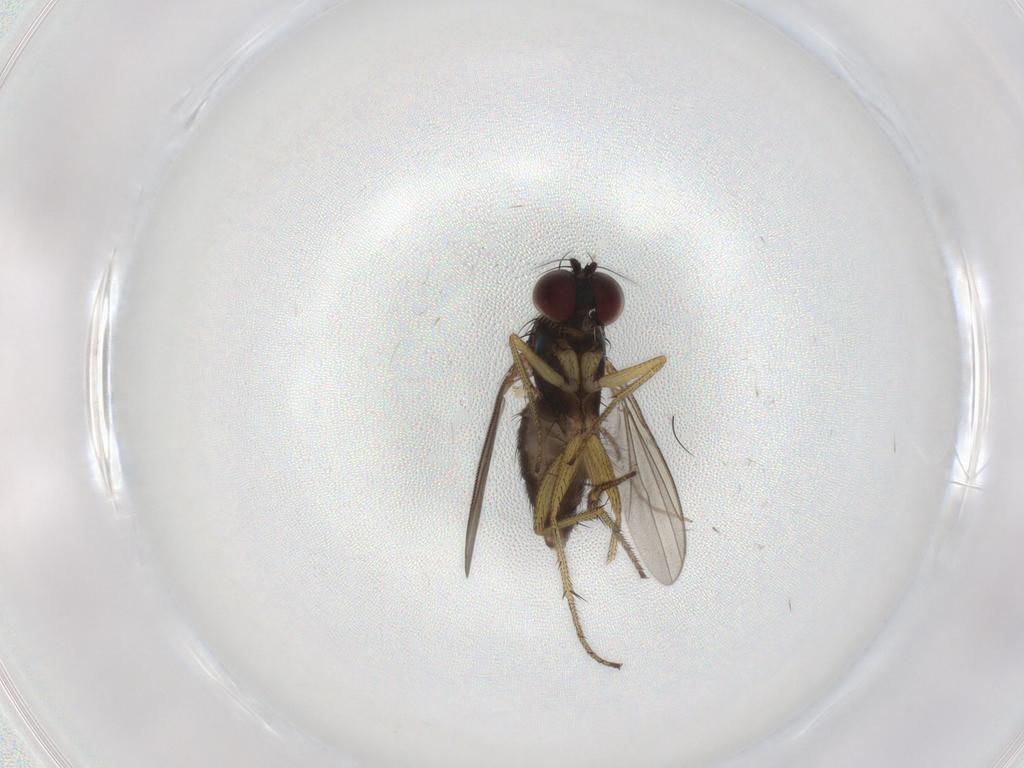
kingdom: Animalia
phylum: Arthropoda
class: Insecta
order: Diptera
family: Dolichopodidae
